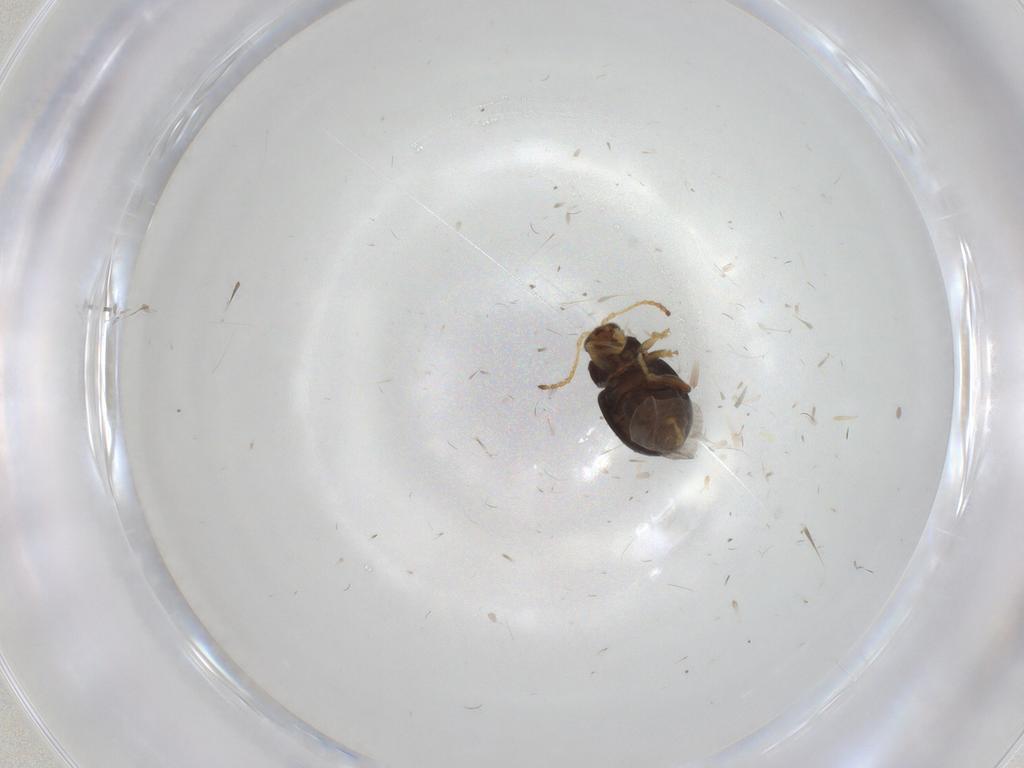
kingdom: Animalia
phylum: Arthropoda
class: Insecta
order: Coleoptera
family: Chrysomelidae
